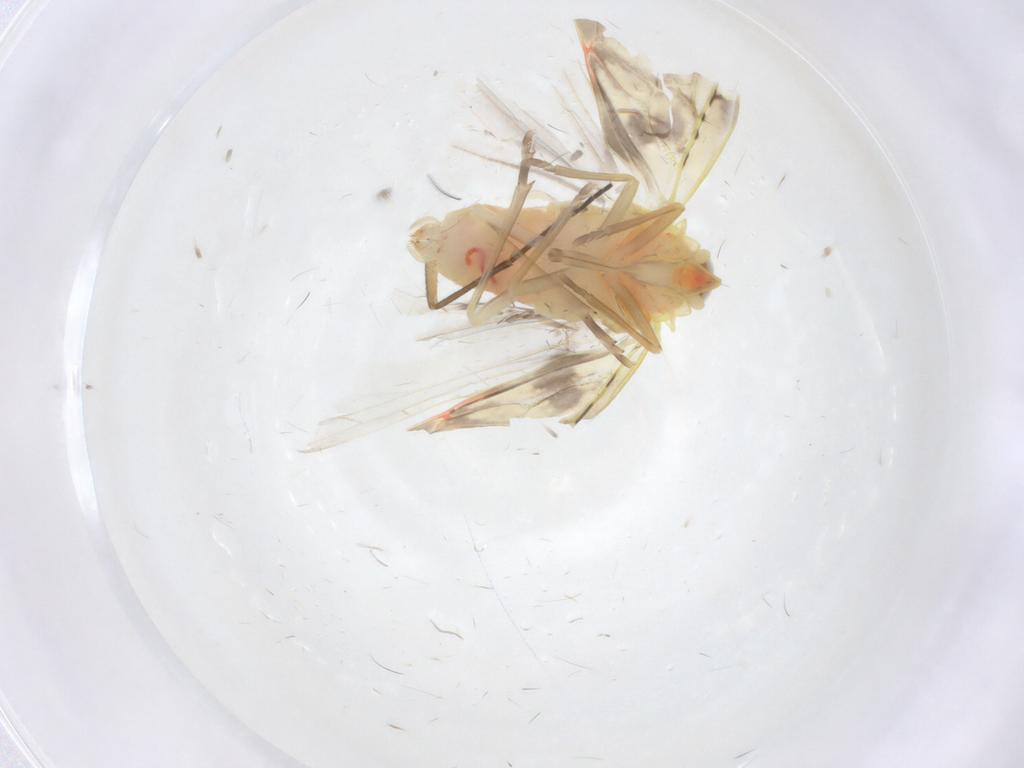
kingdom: Animalia
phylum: Arthropoda
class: Insecta
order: Hemiptera
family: Derbidae
